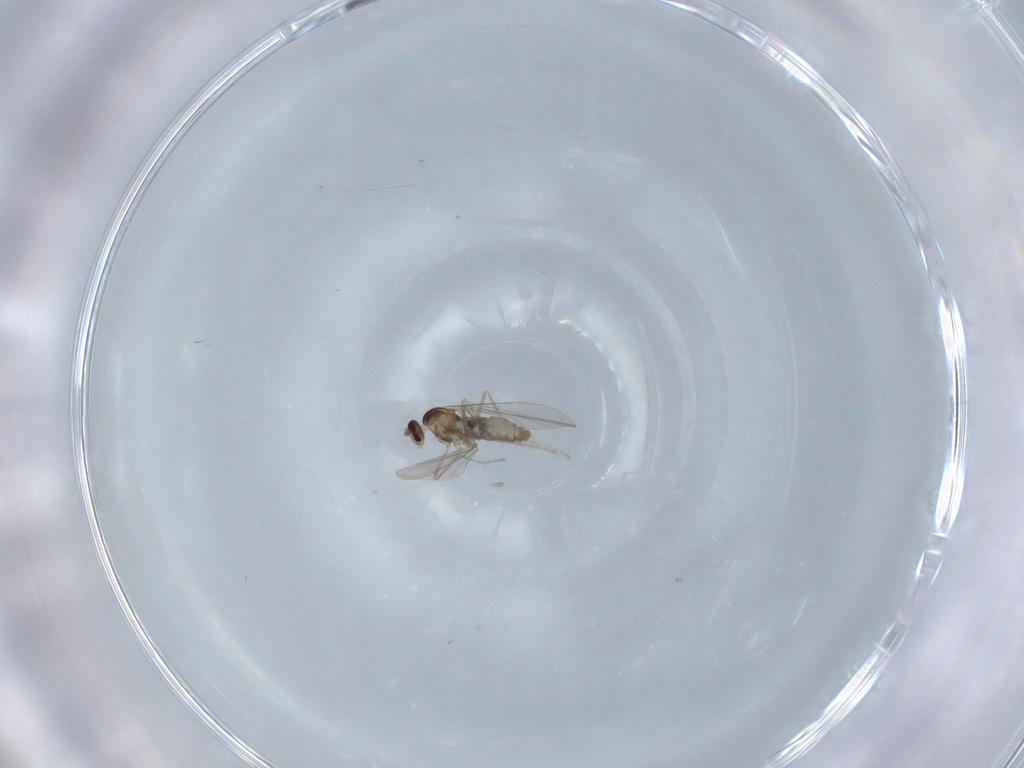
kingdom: Animalia
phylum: Arthropoda
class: Insecta
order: Diptera
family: Cecidomyiidae
